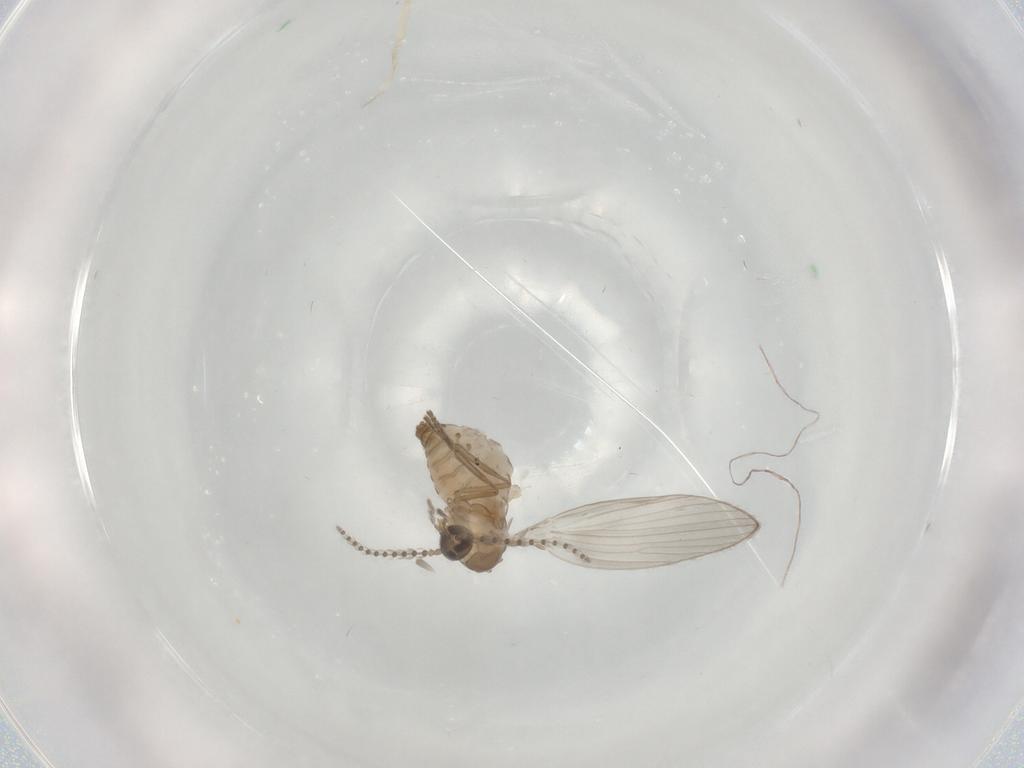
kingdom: Animalia
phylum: Arthropoda
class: Insecta
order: Diptera
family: Psychodidae
